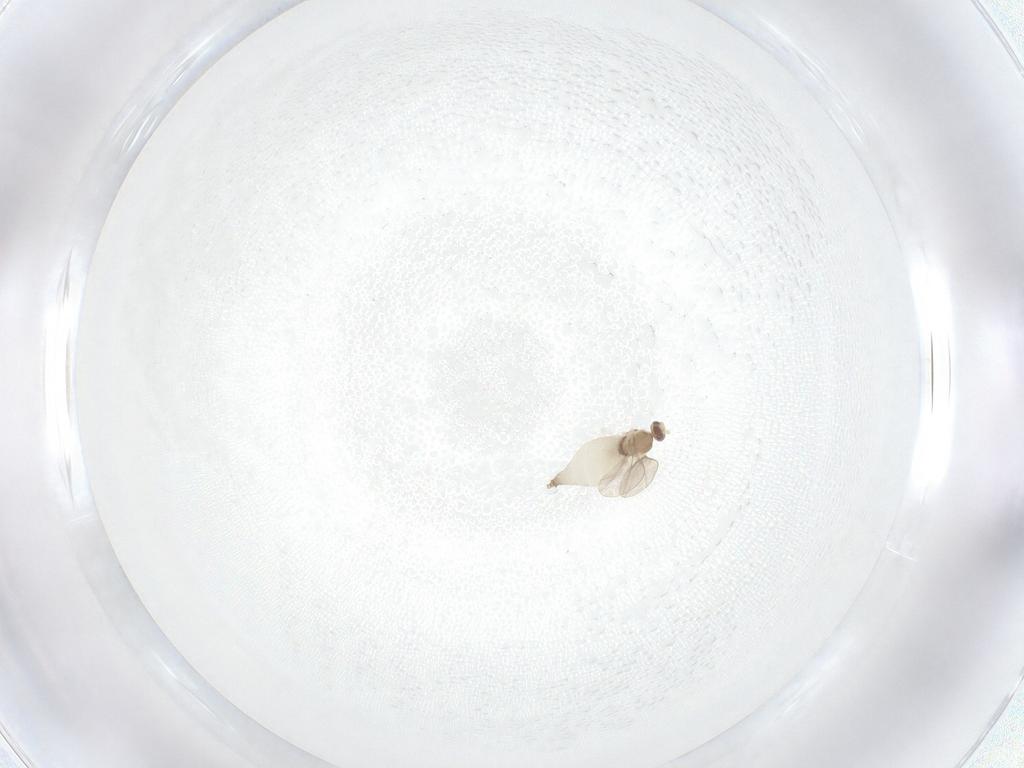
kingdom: Animalia
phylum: Arthropoda
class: Insecta
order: Diptera
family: Cecidomyiidae
